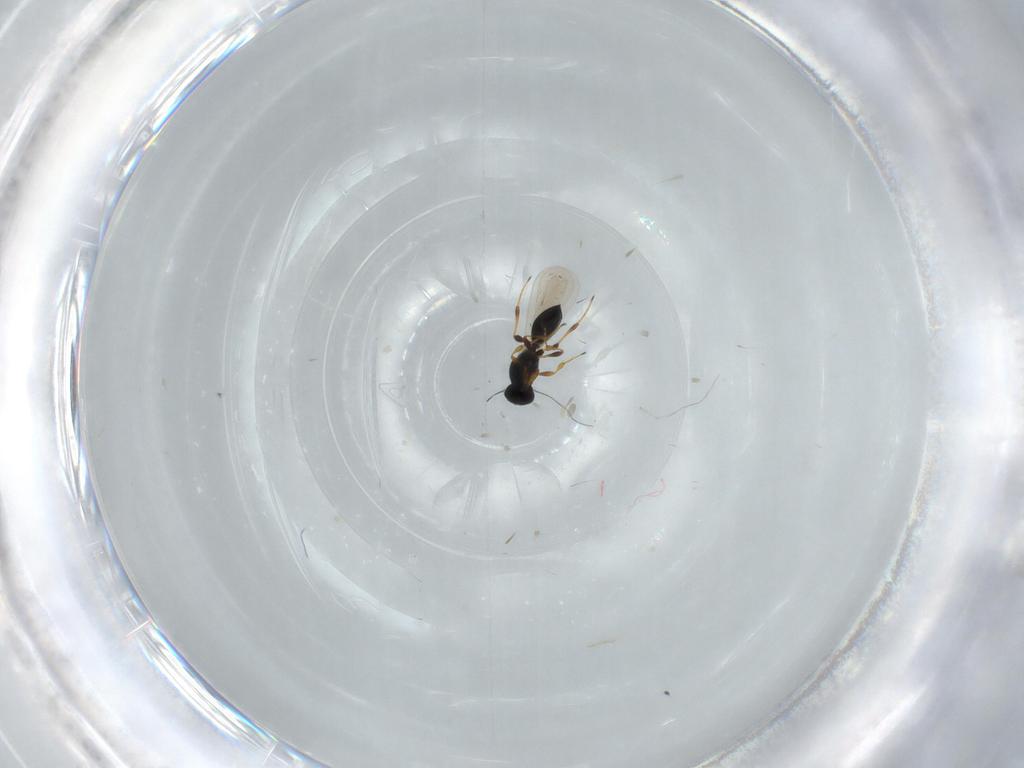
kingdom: Animalia
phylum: Arthropoda
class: Insecta
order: Hymenoptera
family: Platygastridae
